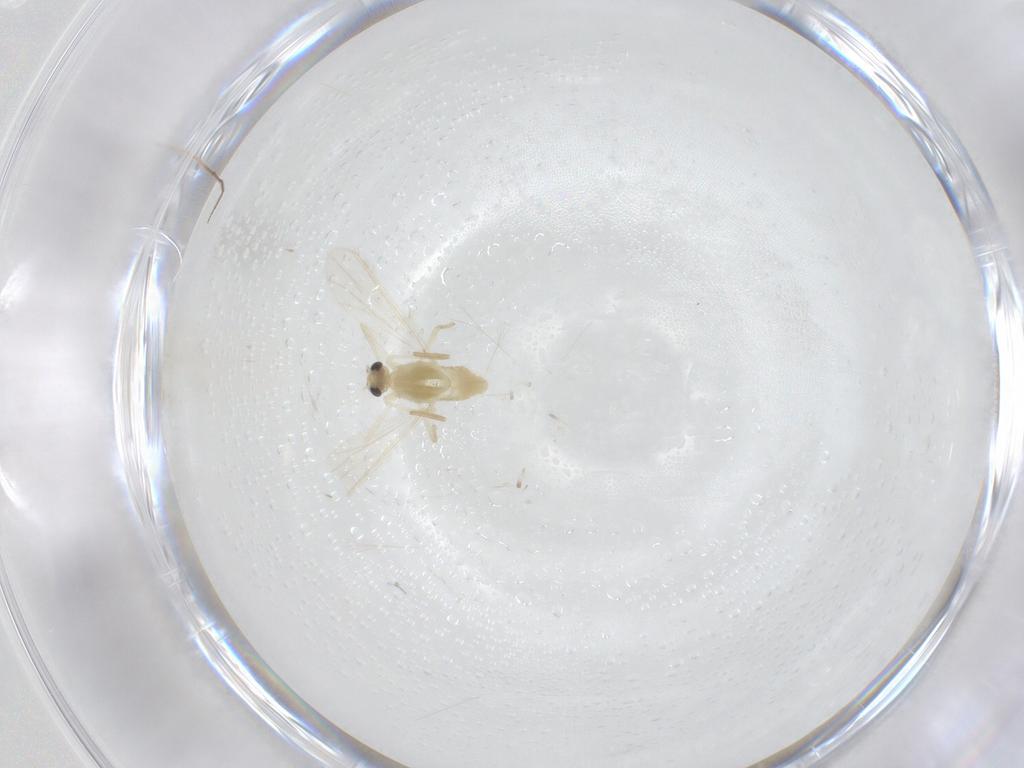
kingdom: Animalia
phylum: Arthropoda
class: Insecta
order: Diptera
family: Chironomidae
